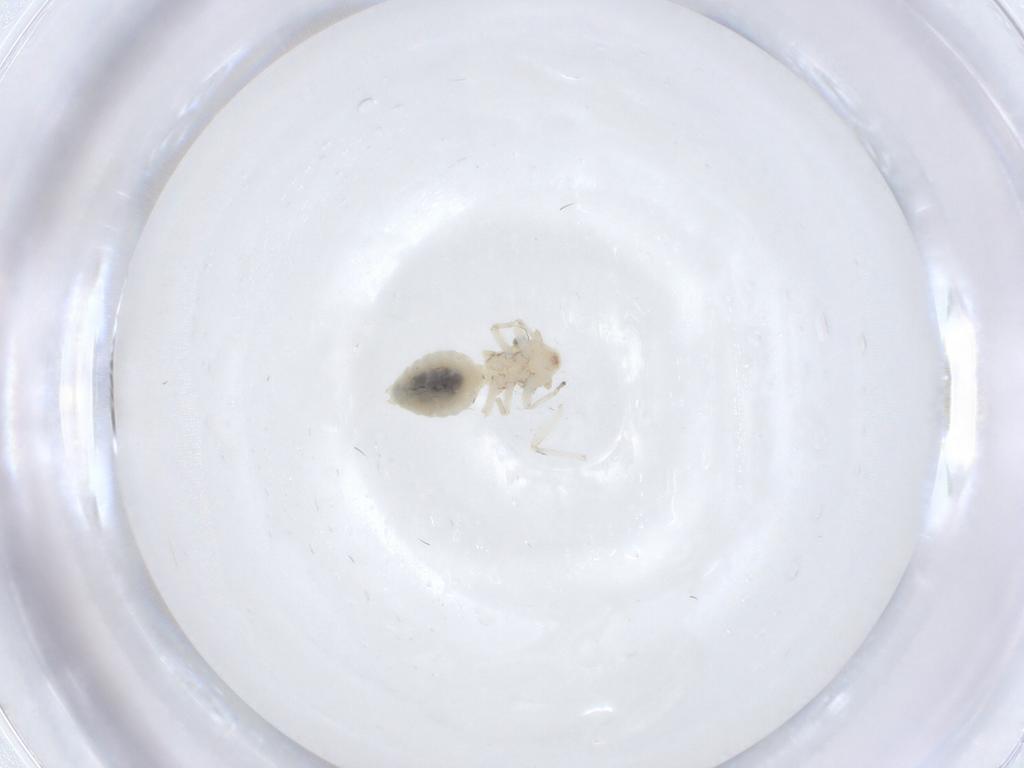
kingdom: Animalia
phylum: Arthropoda
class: Insecta
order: Psocodea
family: Elipsocidae
